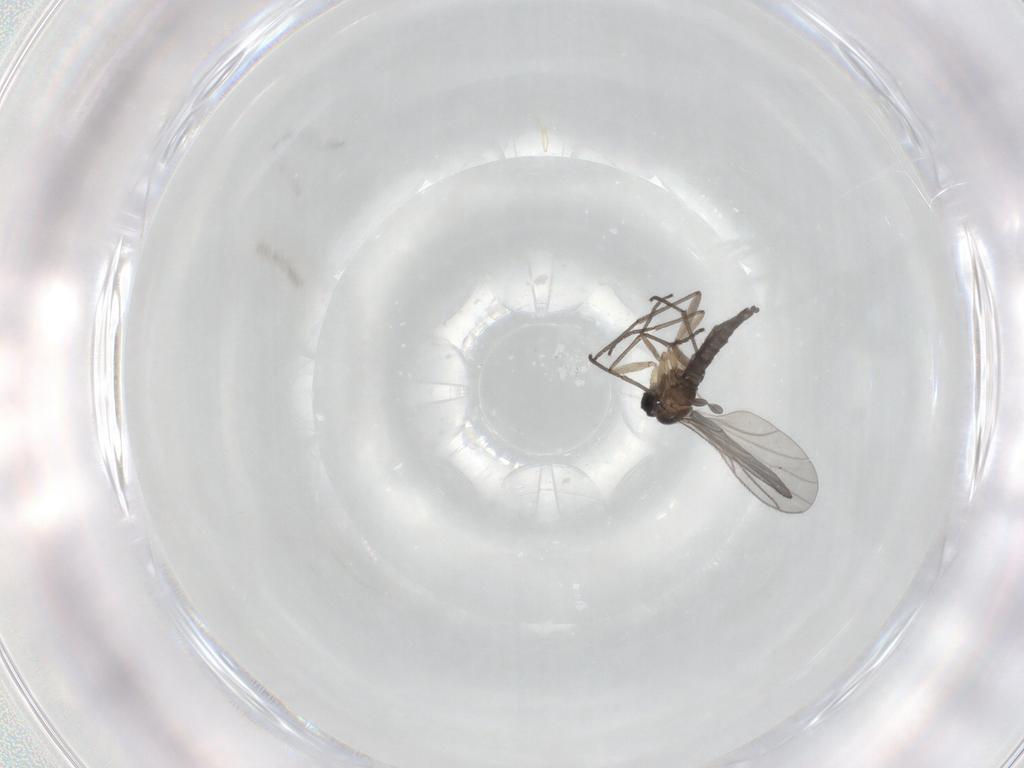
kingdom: Animalia
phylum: Arthropoda
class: Insecta
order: Diptera
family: Sciaridae
